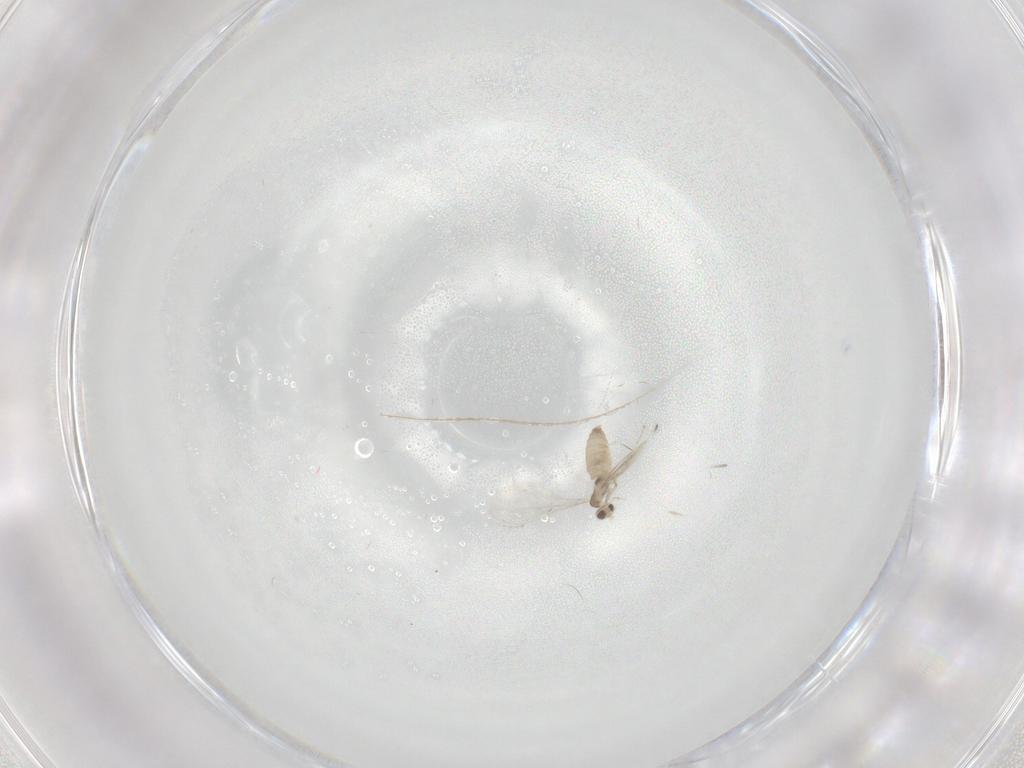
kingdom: Animalia
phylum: Arthropoda
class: Insecta
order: Diptera
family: Cecidomyiidae
